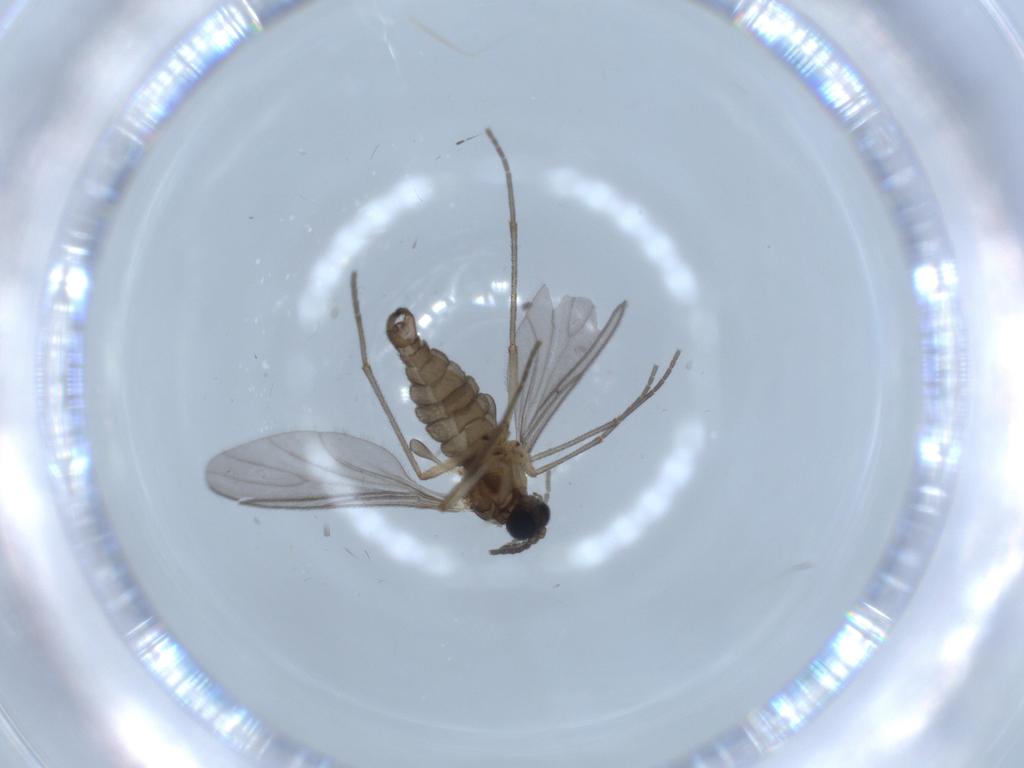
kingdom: Animalia
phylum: Arthropoda
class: Insecta
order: Diptera
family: Sciaridae
